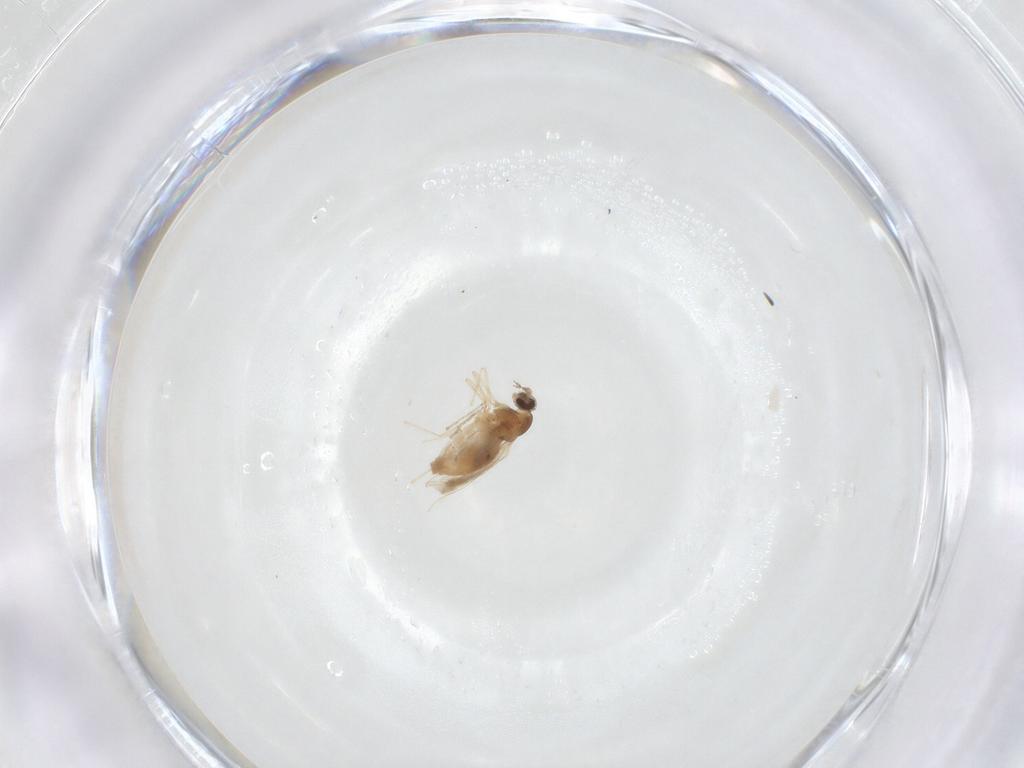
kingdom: Animalia
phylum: Arthropoda
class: Insecta
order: Diptera
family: Cecidomyiidae
